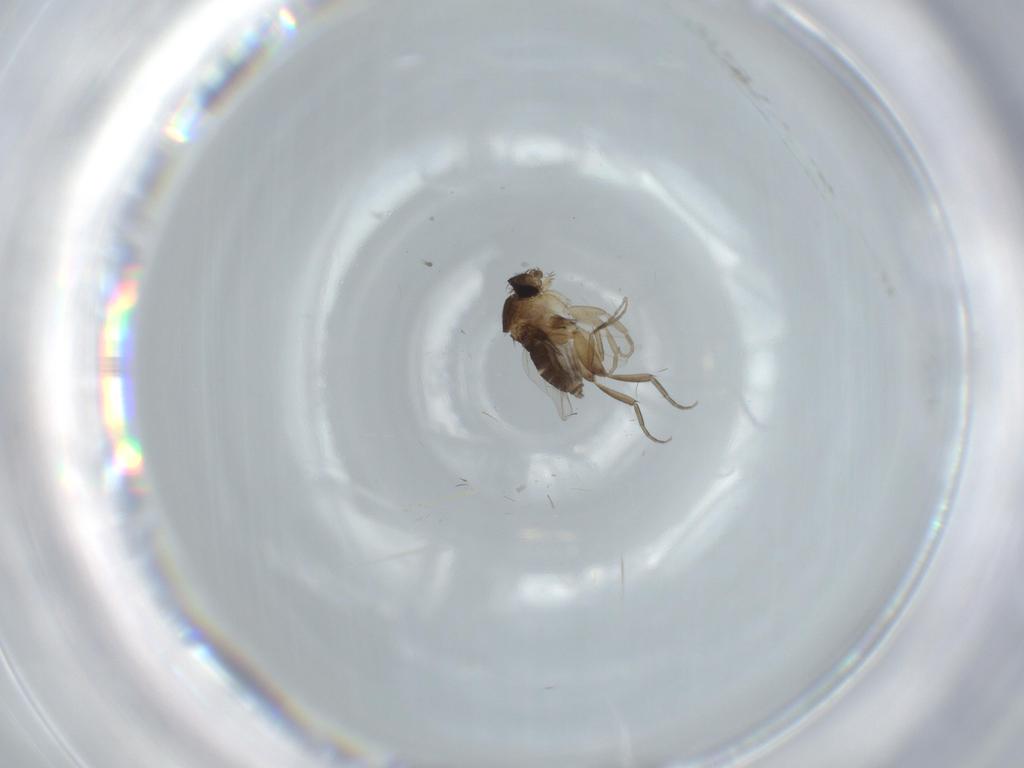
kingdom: Animalia
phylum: Arthropoda
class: Insecta
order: Diptera
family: Phoridae
